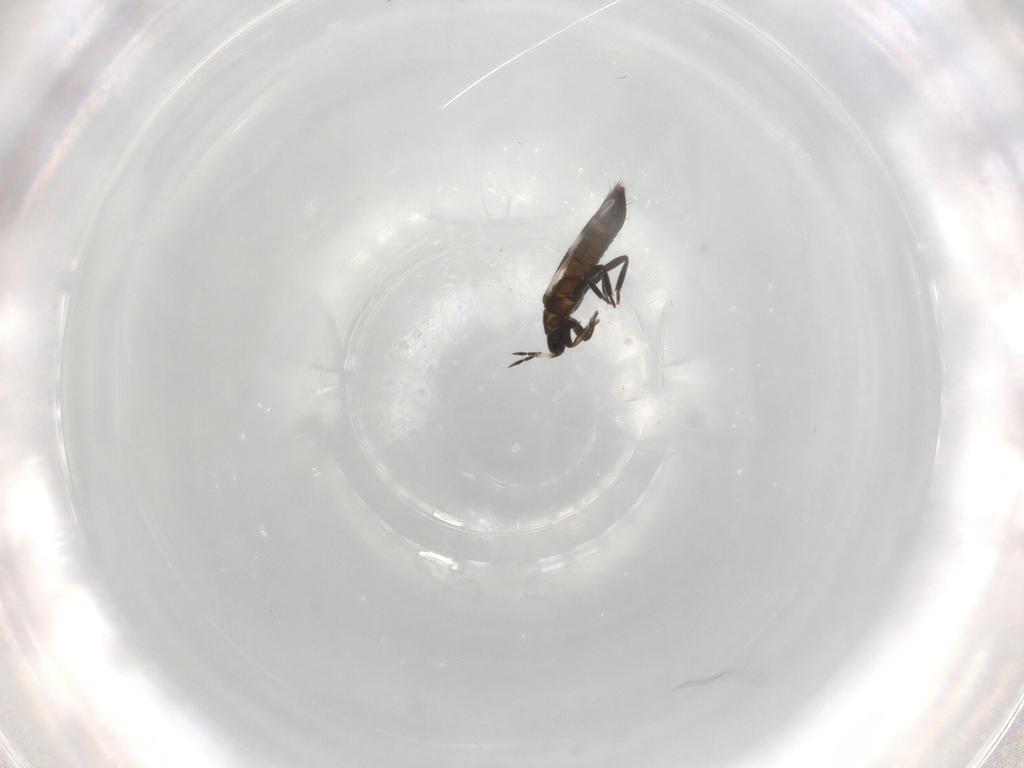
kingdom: Animalia
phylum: Arthropoda
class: Insecta
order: Thysanoptera
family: Aeolothripidae
